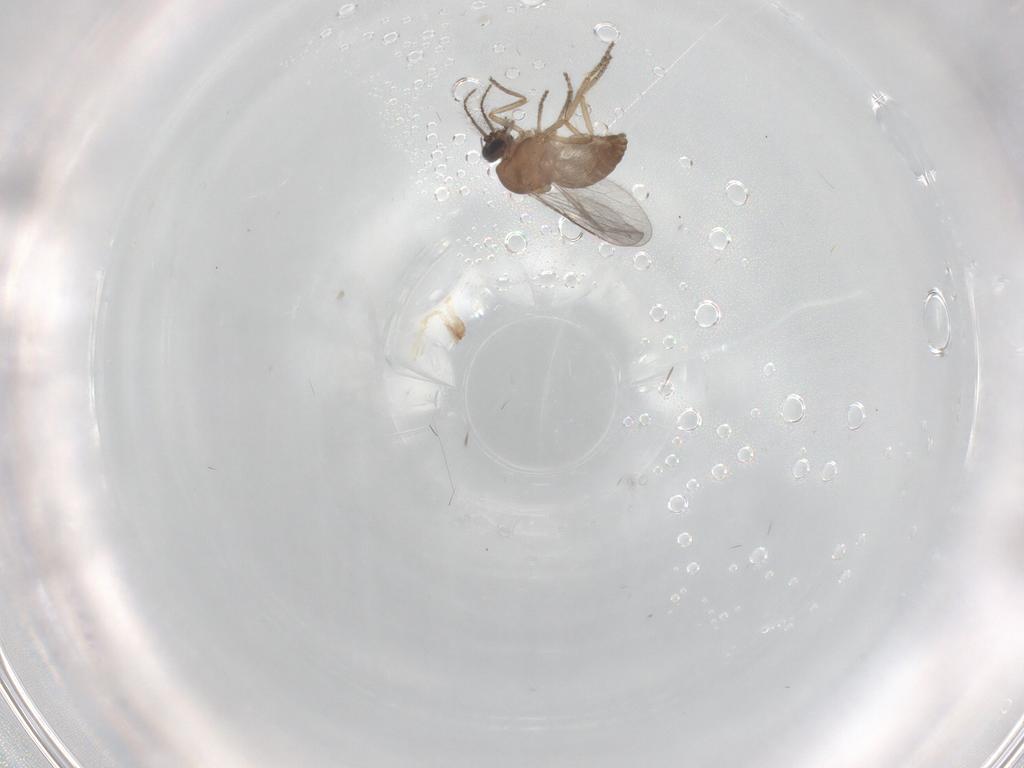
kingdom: Animalia
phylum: Arthropoda
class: Insecta
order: Diptera
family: Ceratopogonidae
